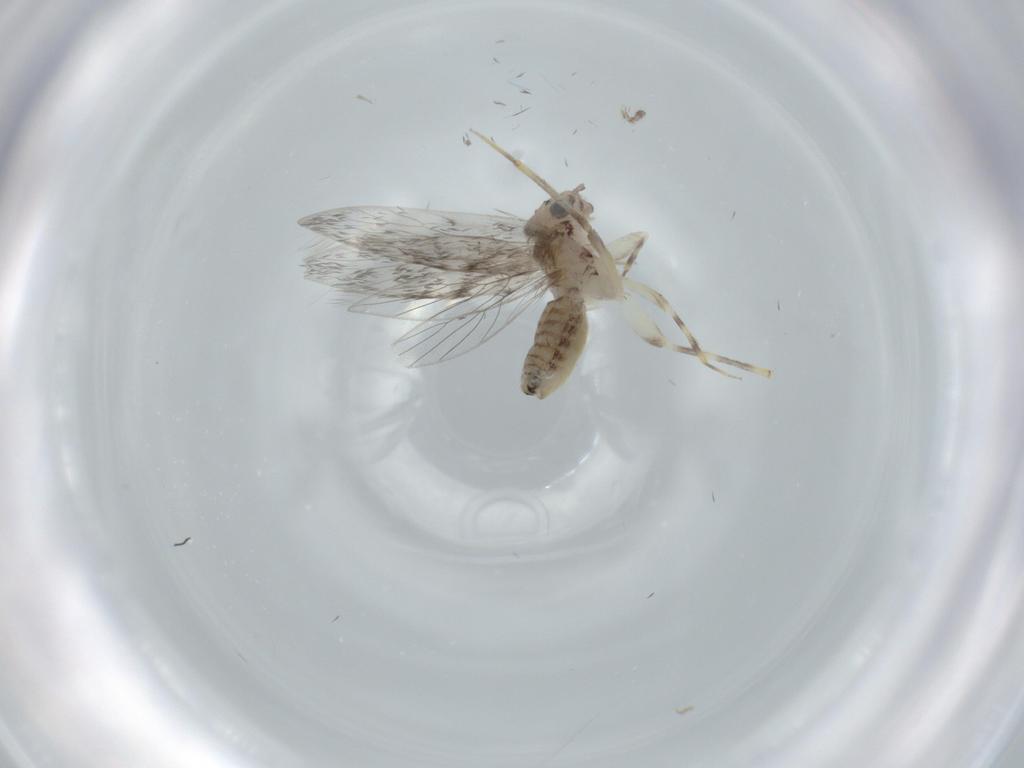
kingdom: Animalia
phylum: Arthropoda
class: Insecta
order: Psocodea
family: Lepidopsocidae
